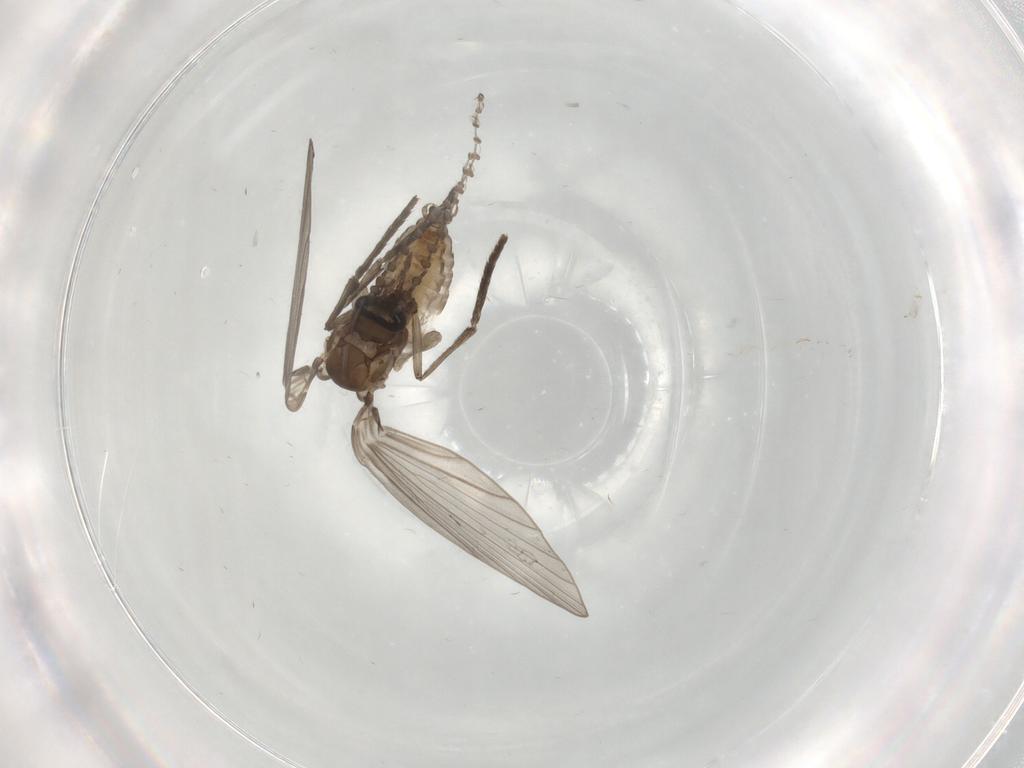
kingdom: Animalia
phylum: Arthropoda
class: Insecta
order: Diptera
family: Psychodidae
